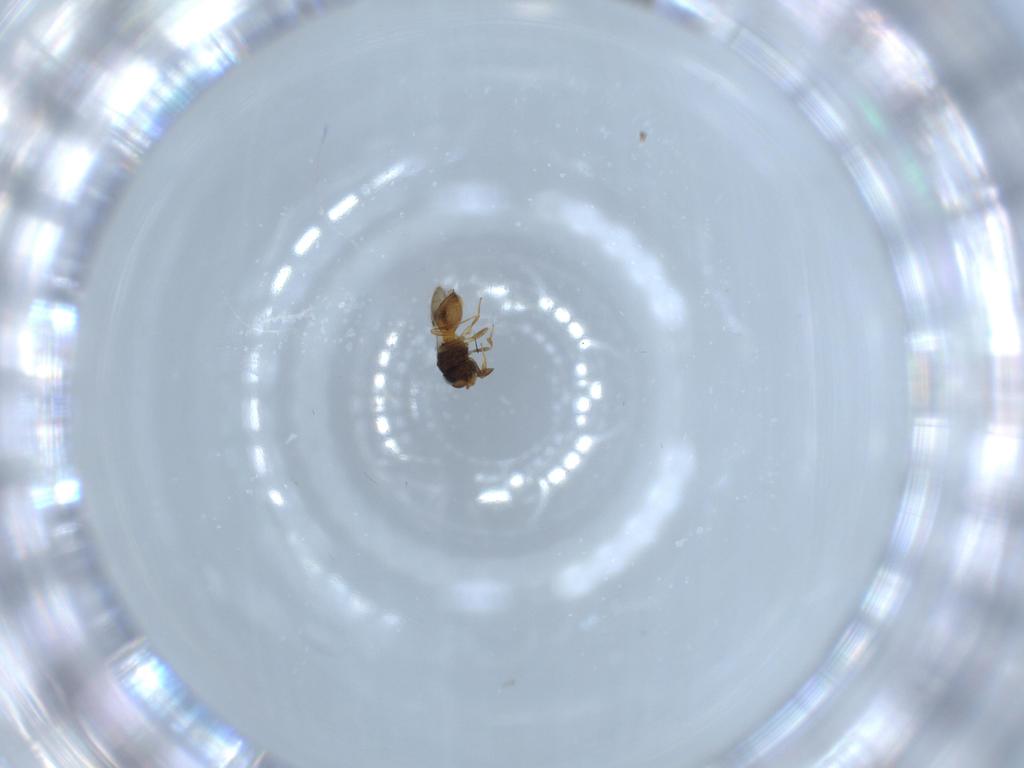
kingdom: Animalia
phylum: Arthropoda
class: Insecta
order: Hymenoptera
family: Scelionidae
